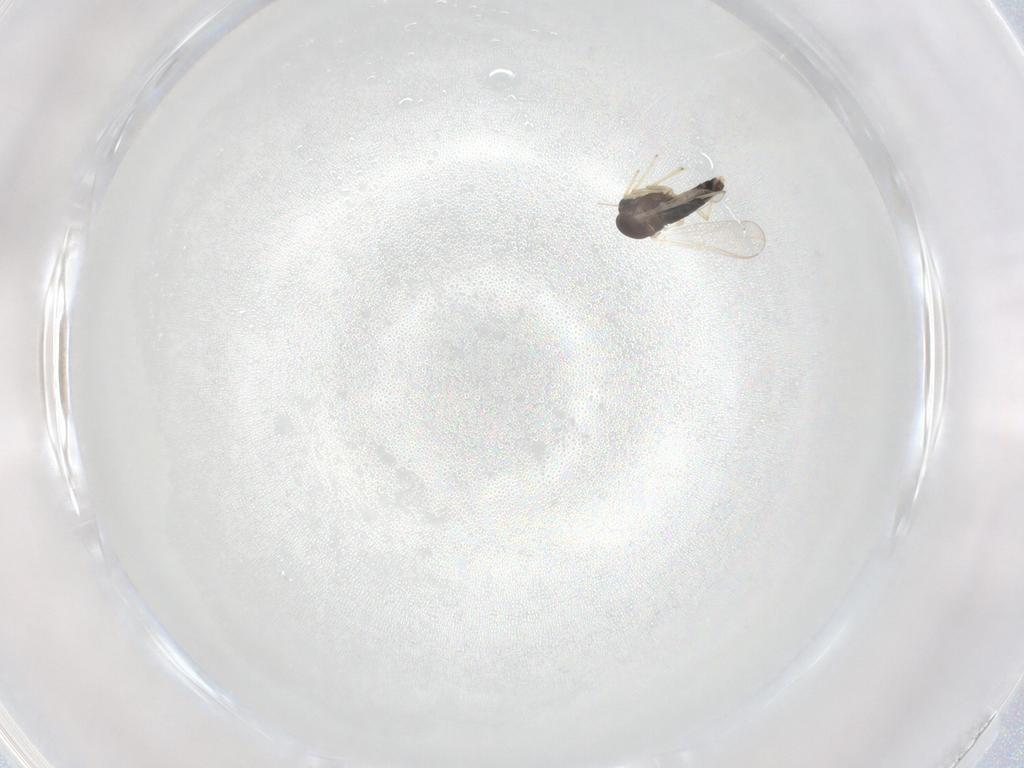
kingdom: Animalia
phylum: Arthropoda
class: Insecta
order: Diptera
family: Chironomidae
